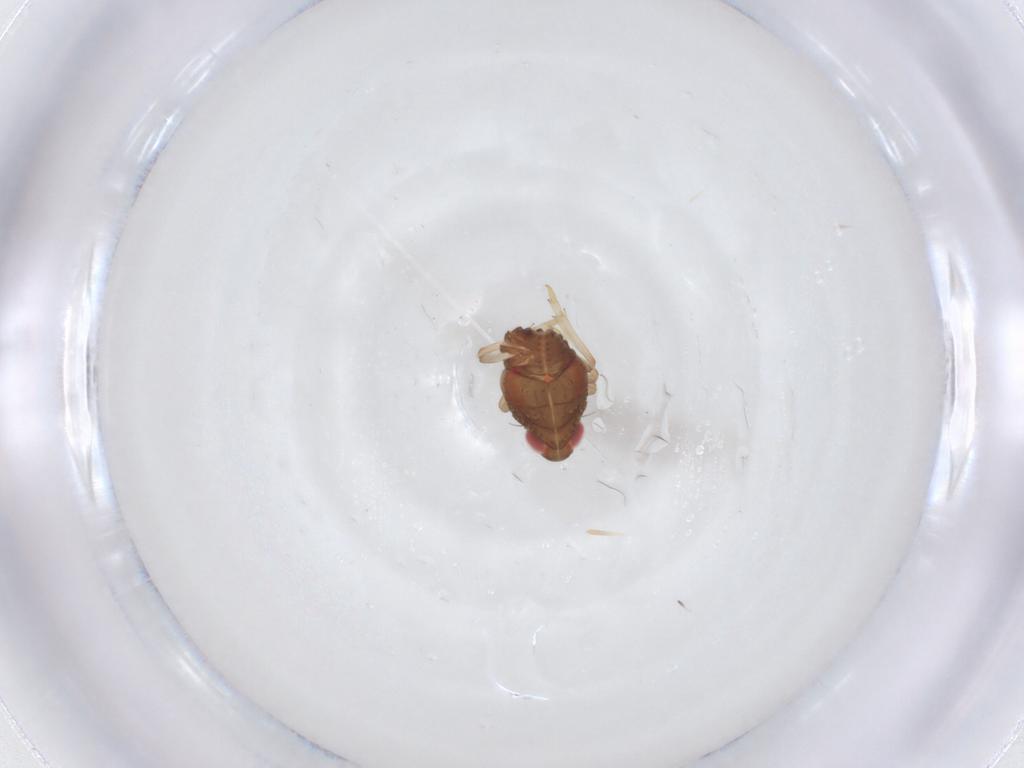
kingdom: Animalia
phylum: Arthropoda
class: Insecta
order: Hemiptera
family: Issidae
